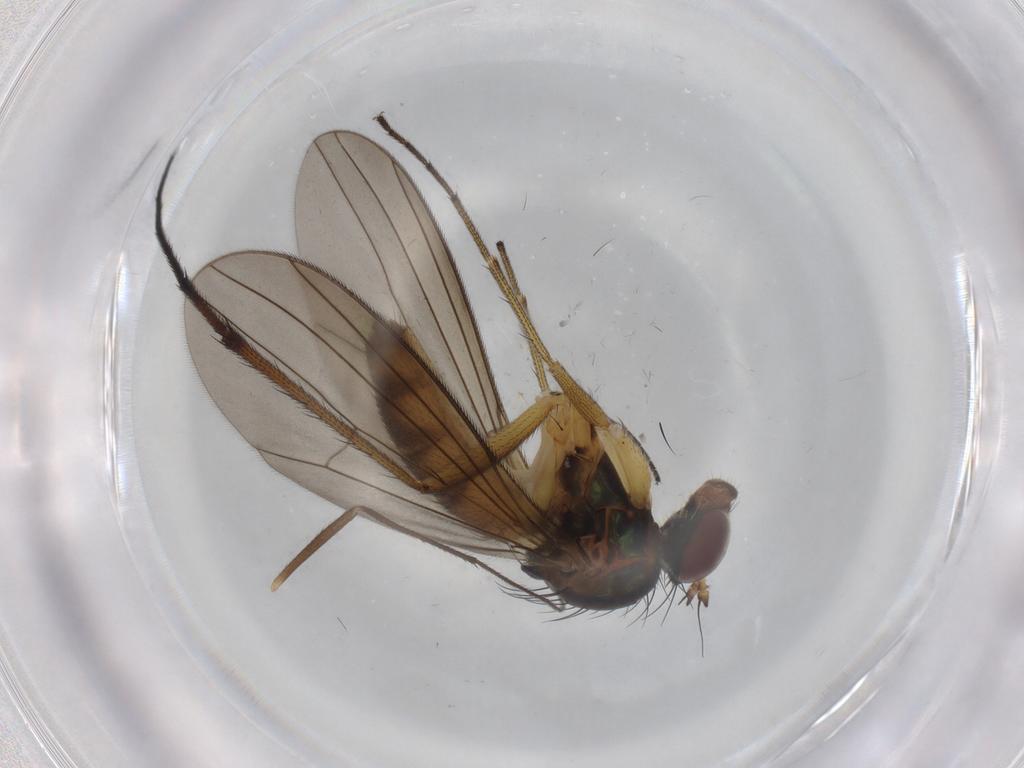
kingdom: Animalia
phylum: Arthropoda
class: Insecta
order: Diptera
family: Dolichopodidae
